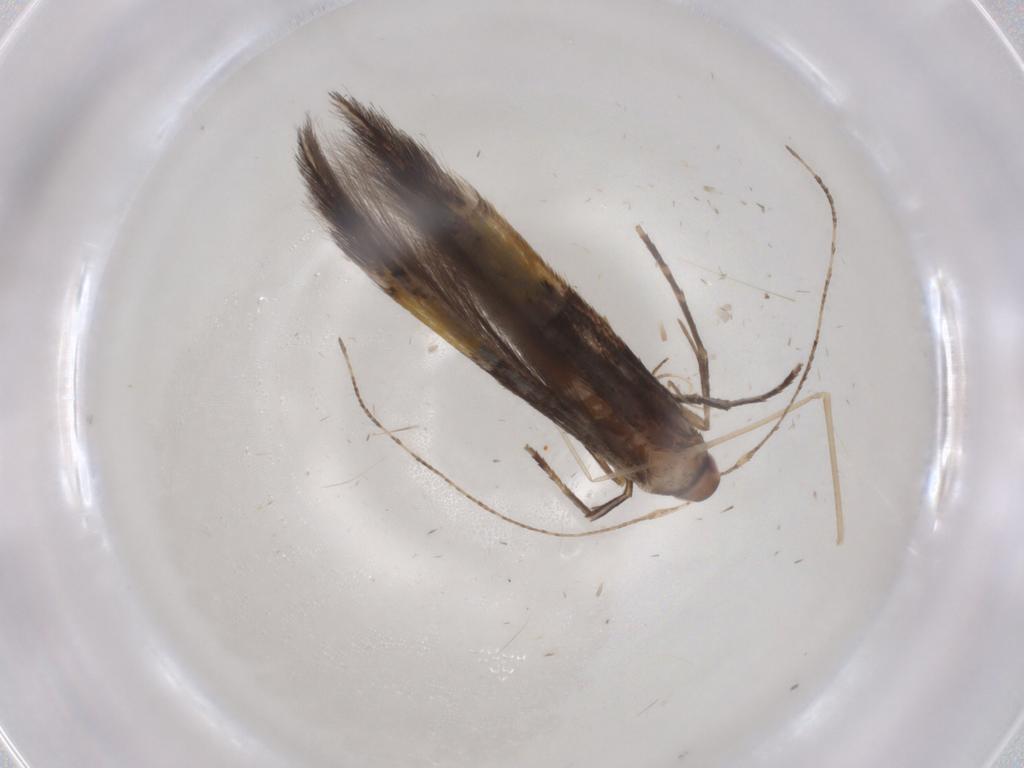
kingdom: Animalia
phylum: Arthropoda
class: Insecta
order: Lepidoptera
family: Cosmopterigidae
